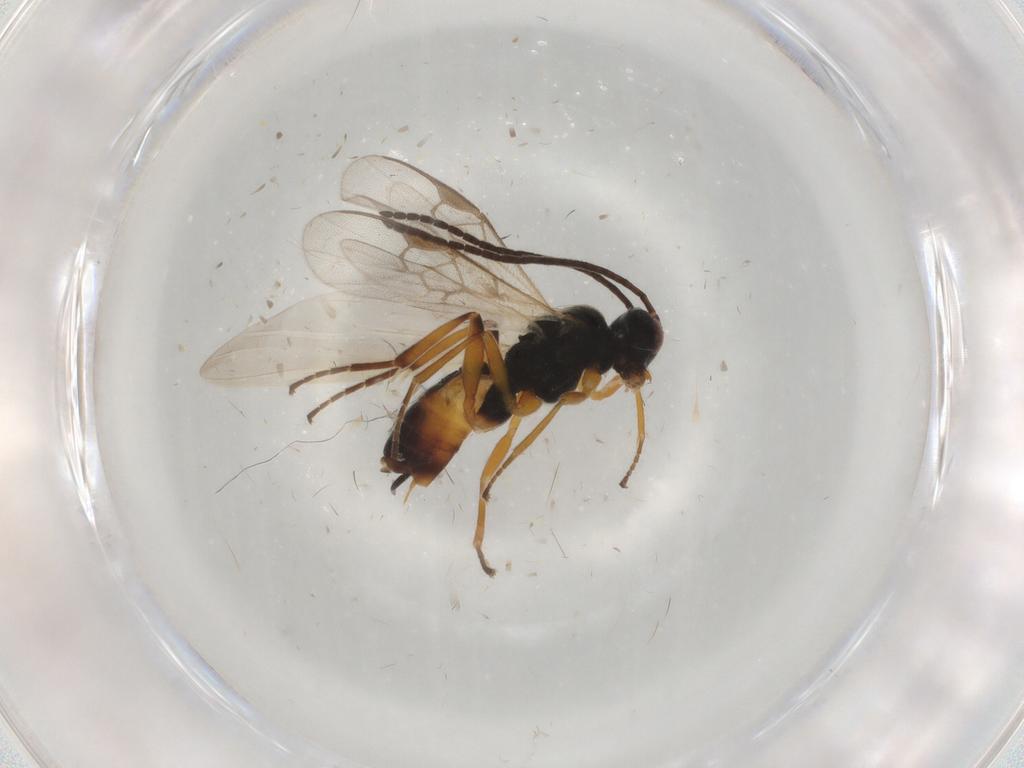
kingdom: Animalia
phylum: Arthropoda
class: Insecta
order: Hymenoptera
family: Braconidae
